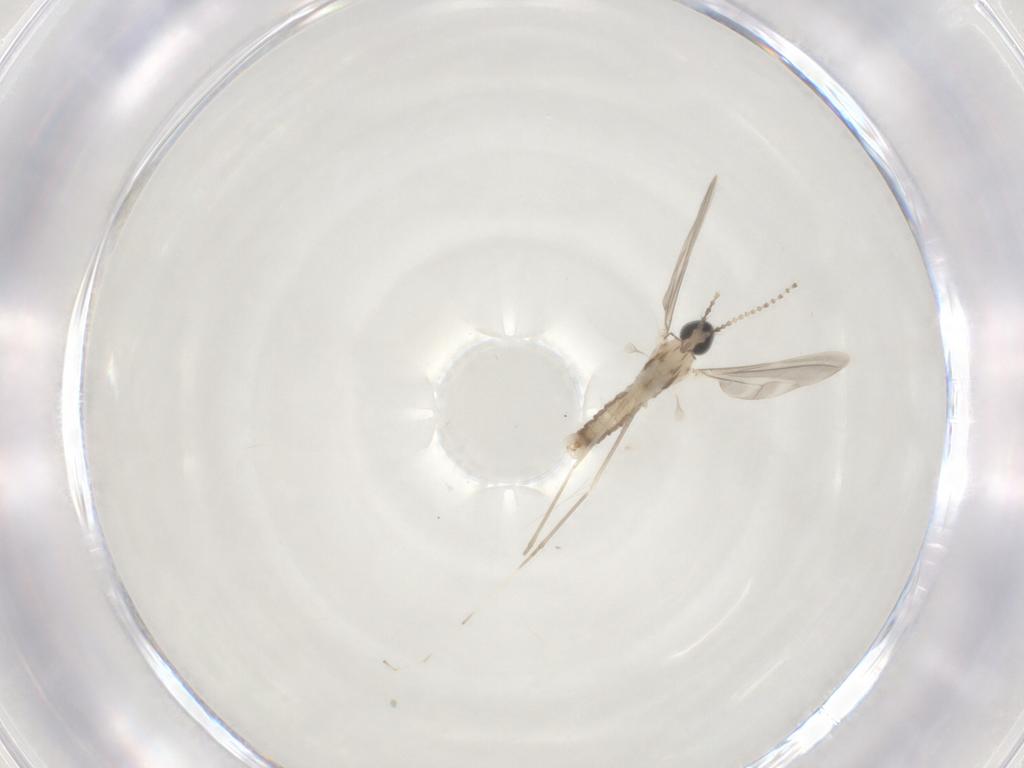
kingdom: Animalia
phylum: Arthropoda
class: Insecta
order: Diptera
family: Cecidomyiidae
